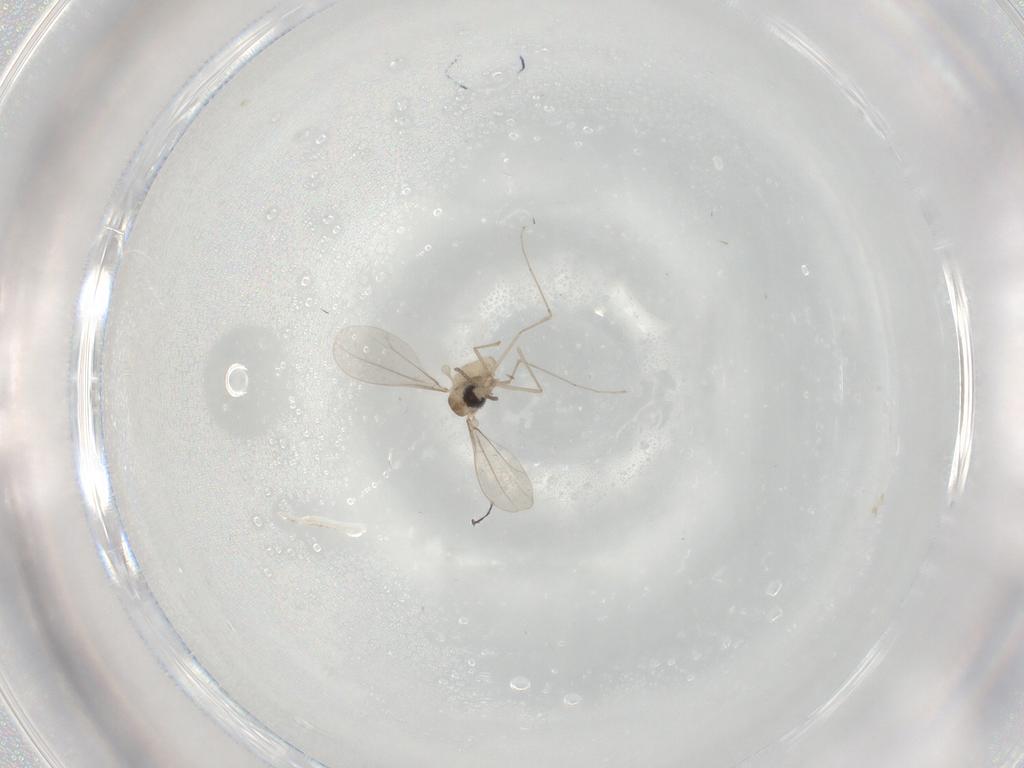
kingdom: Animalia
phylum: Arthropoda
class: Insecta
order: Diptera
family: Cecidomyiidae
